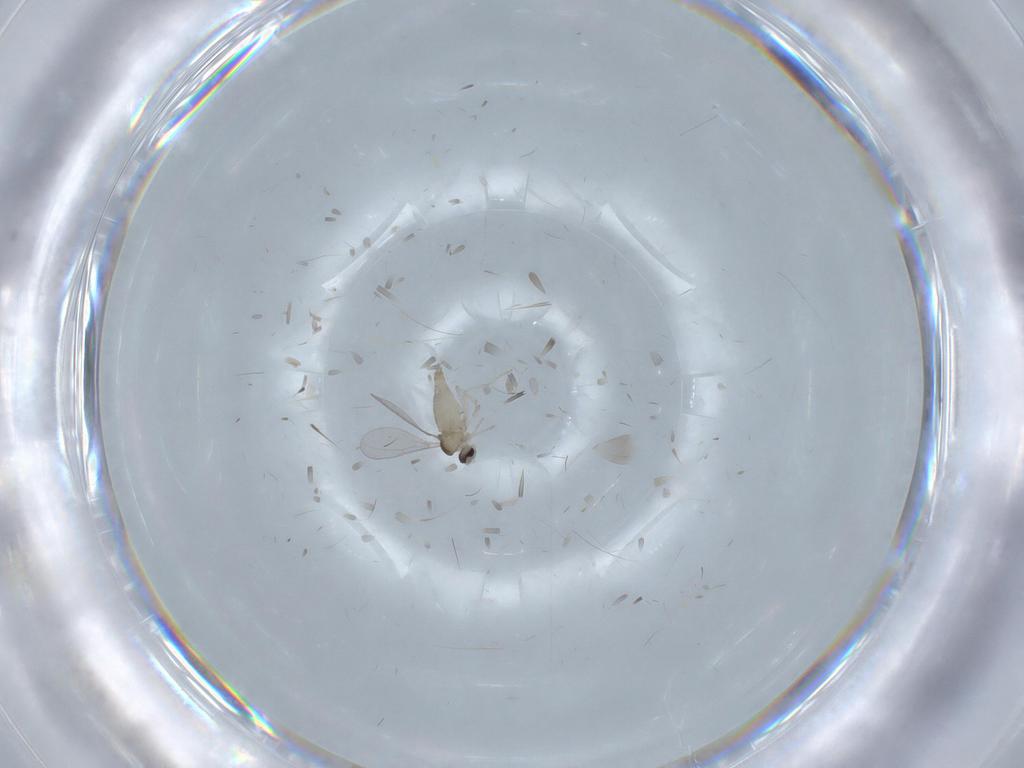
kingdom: Animalia
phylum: Arthropoda
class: Insecta
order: Diptera
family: Cecidomyiidae
